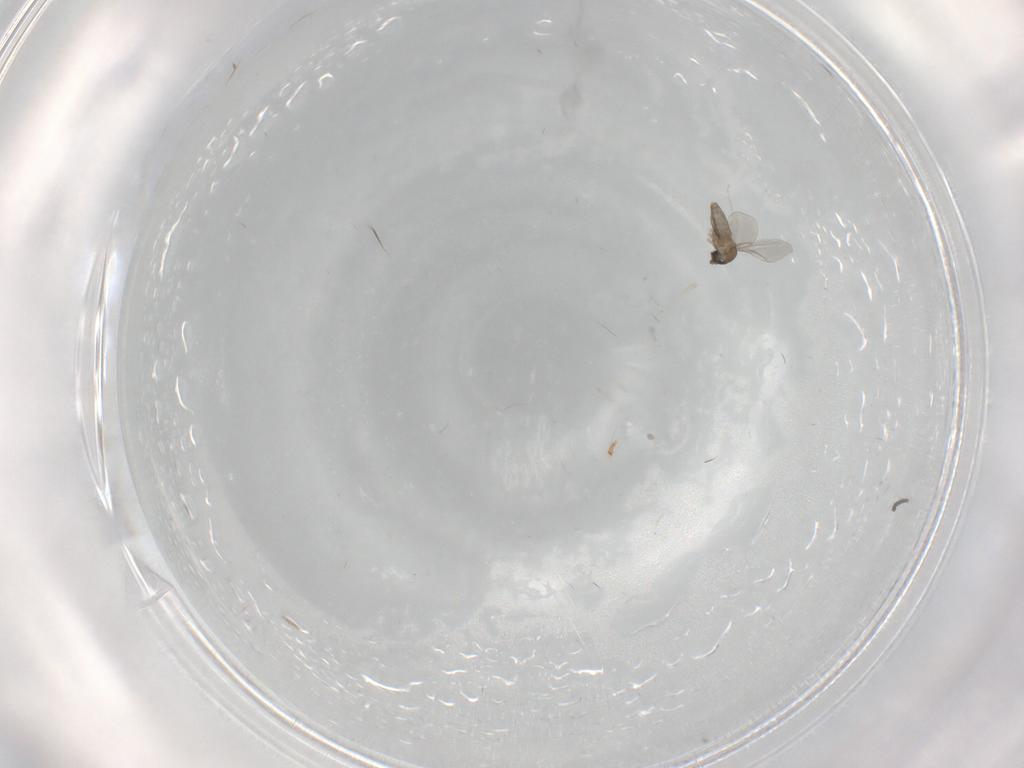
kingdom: Animalia
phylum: Arthropoda
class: Insecta
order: Diptera
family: Cecidomyiidae
